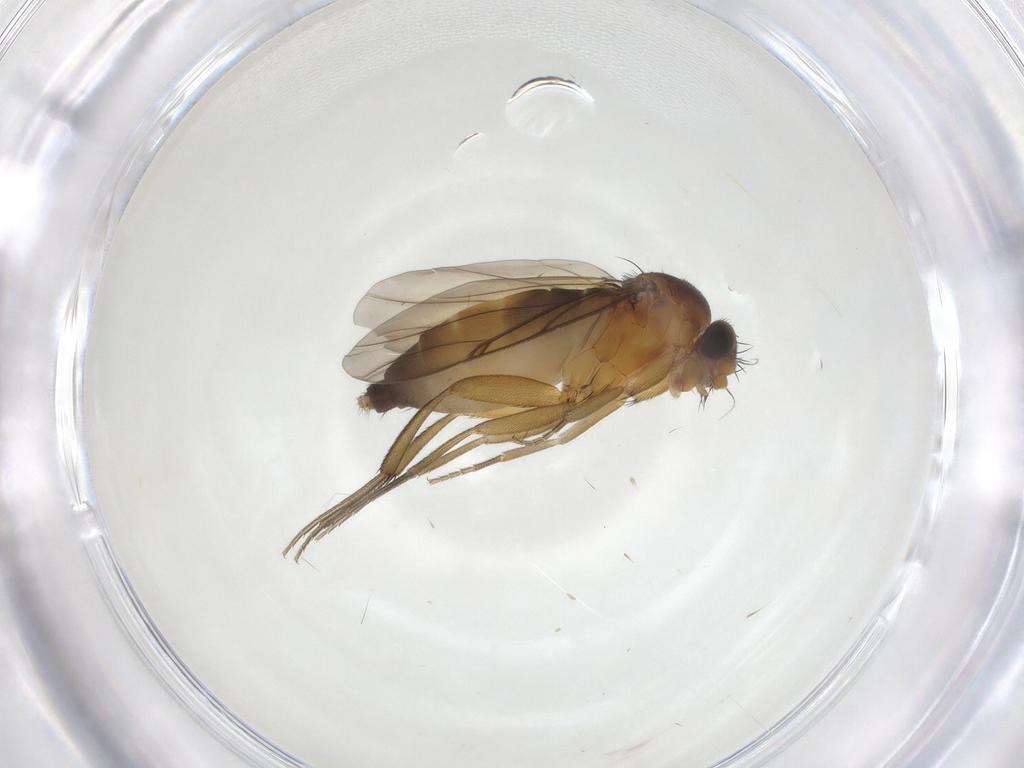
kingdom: Animalia
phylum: Arthropoda
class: Insecta
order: Diptera
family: Phoridae
